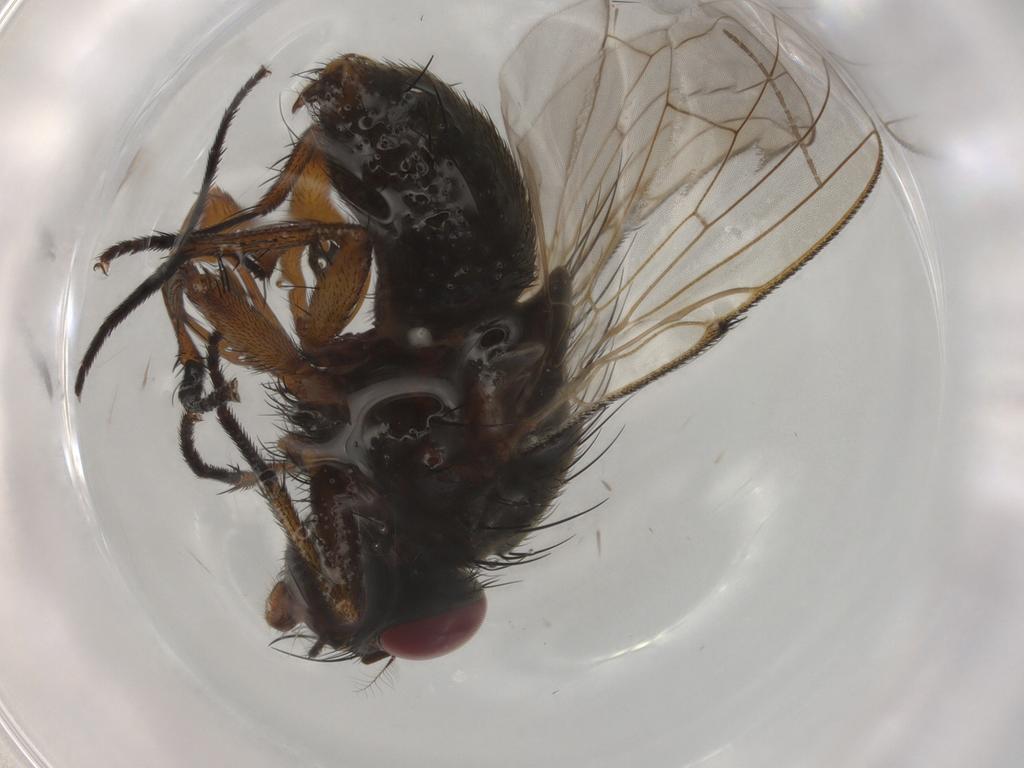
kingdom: Animalia
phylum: Arthropoda
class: Insecta
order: Diptera
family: Muscidae
